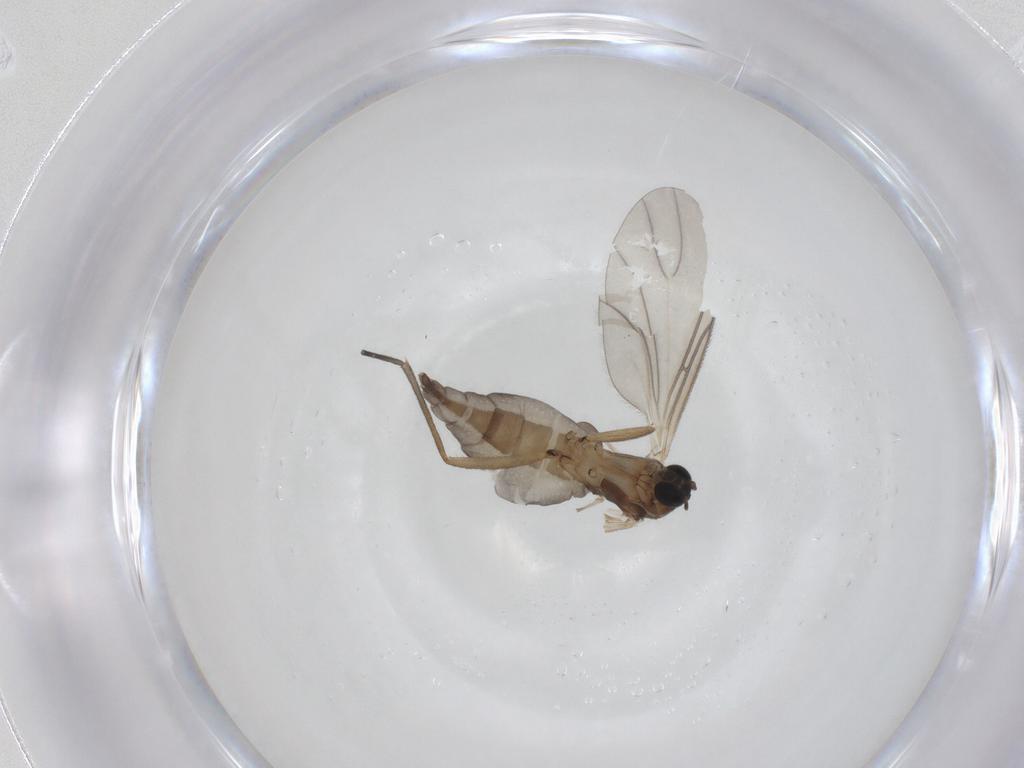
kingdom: Animalia
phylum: Arthropoda
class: Insecta
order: Diptera
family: Sciaridae
